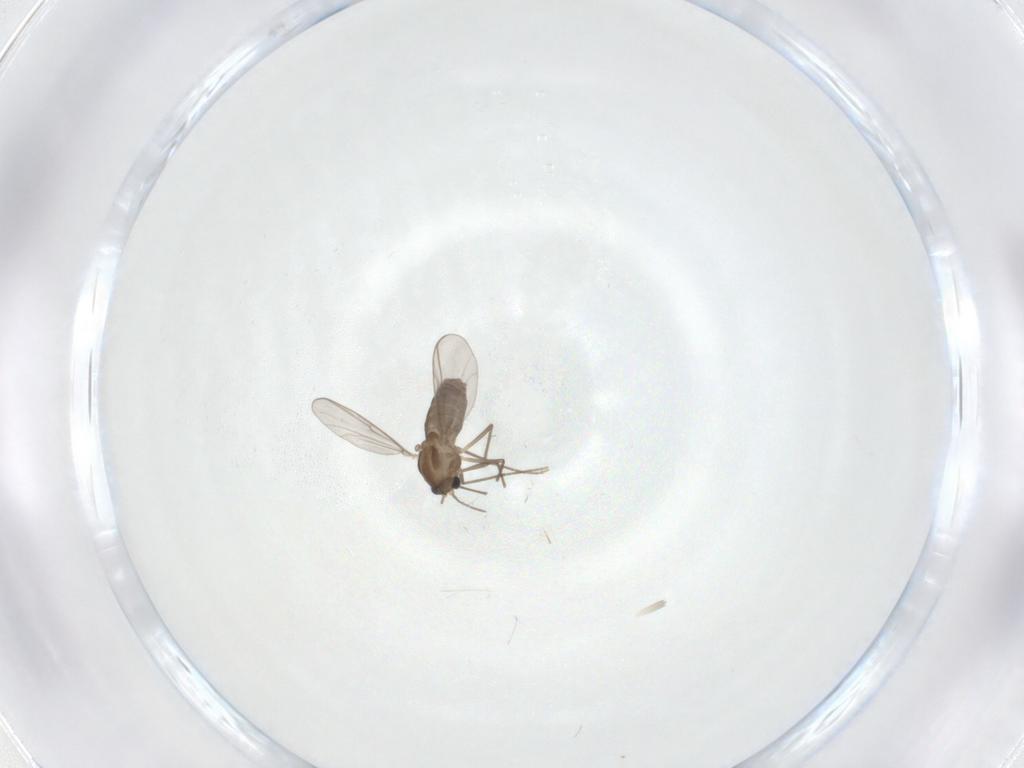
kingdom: Animalia
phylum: Arthropoda
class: Insecta
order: Diptera
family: Chironomidae
